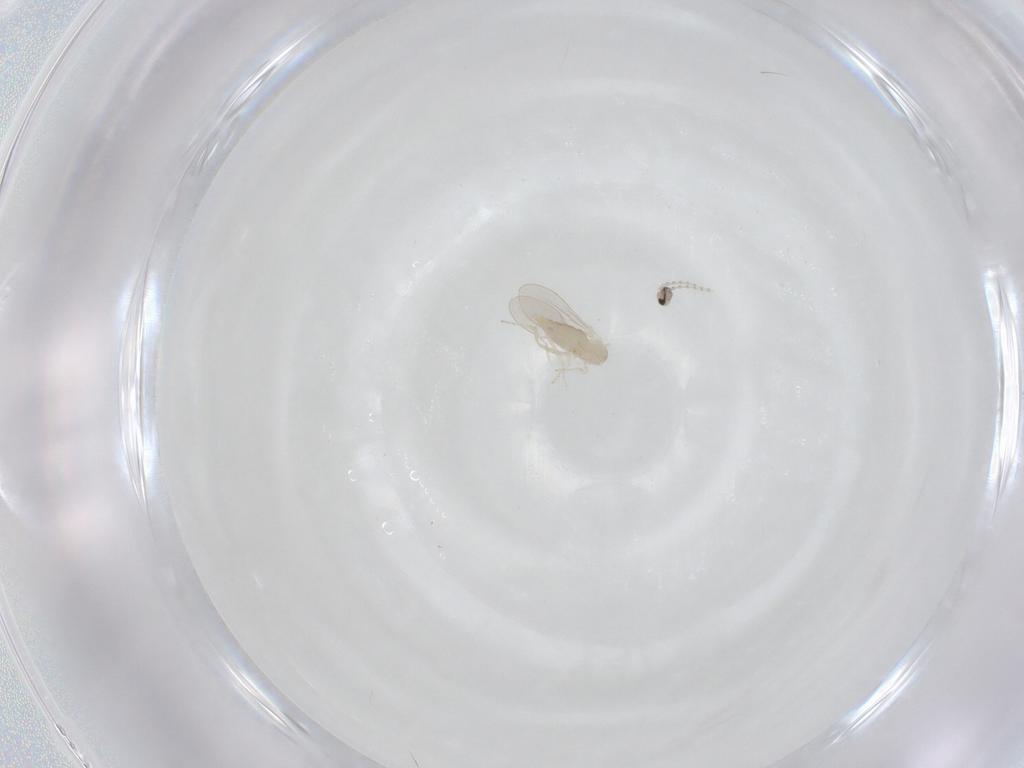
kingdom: Animalia
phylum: Arthropoda
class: Insecta
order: Diptera
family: Cecidomyiidae
